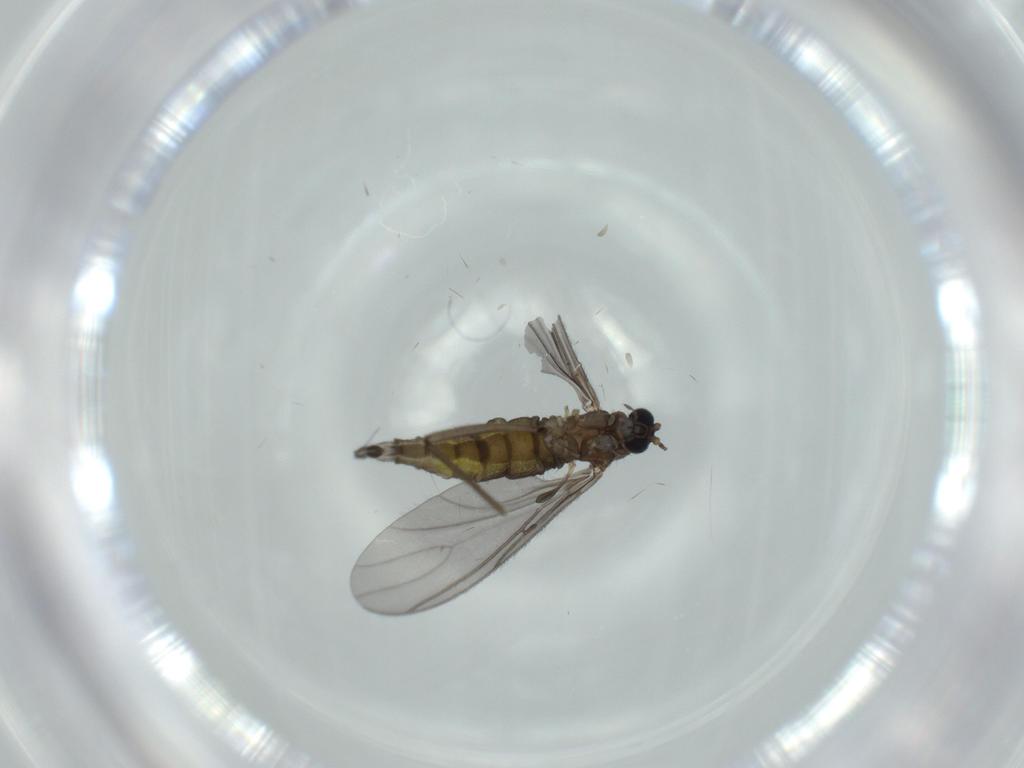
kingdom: Animalia
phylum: Arthropoda
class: Insecta
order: Diptera
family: Sciaridae
